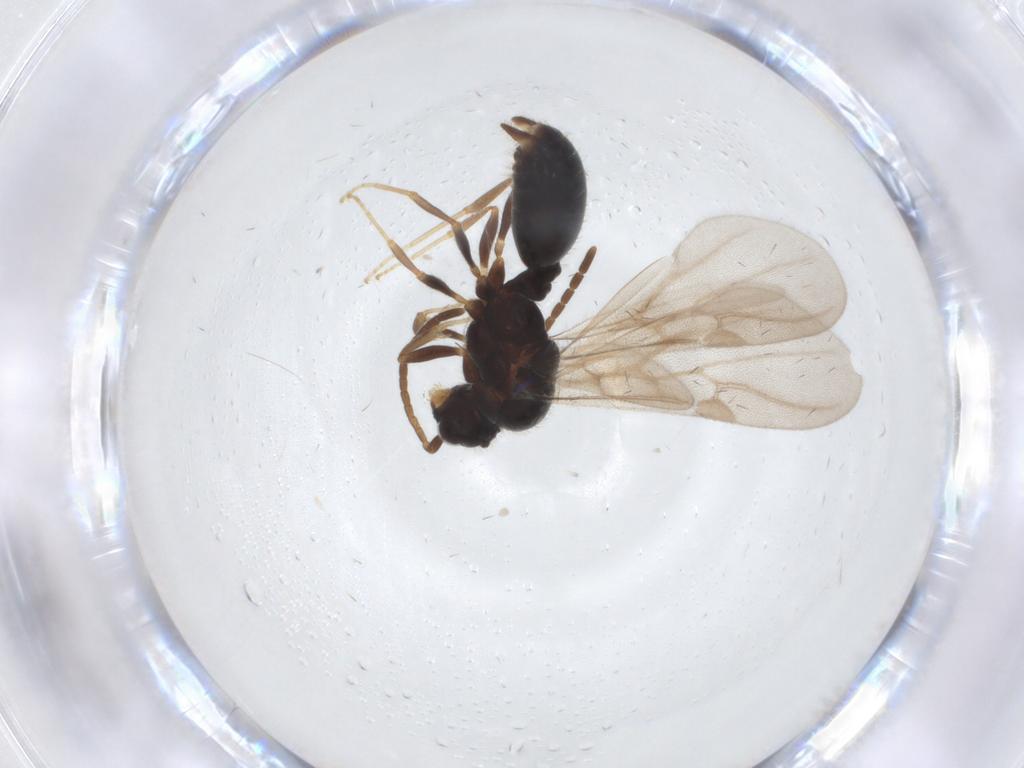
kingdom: Animalia
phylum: Arthropoda
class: Insecta
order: Hymenoptera
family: Formicidae
